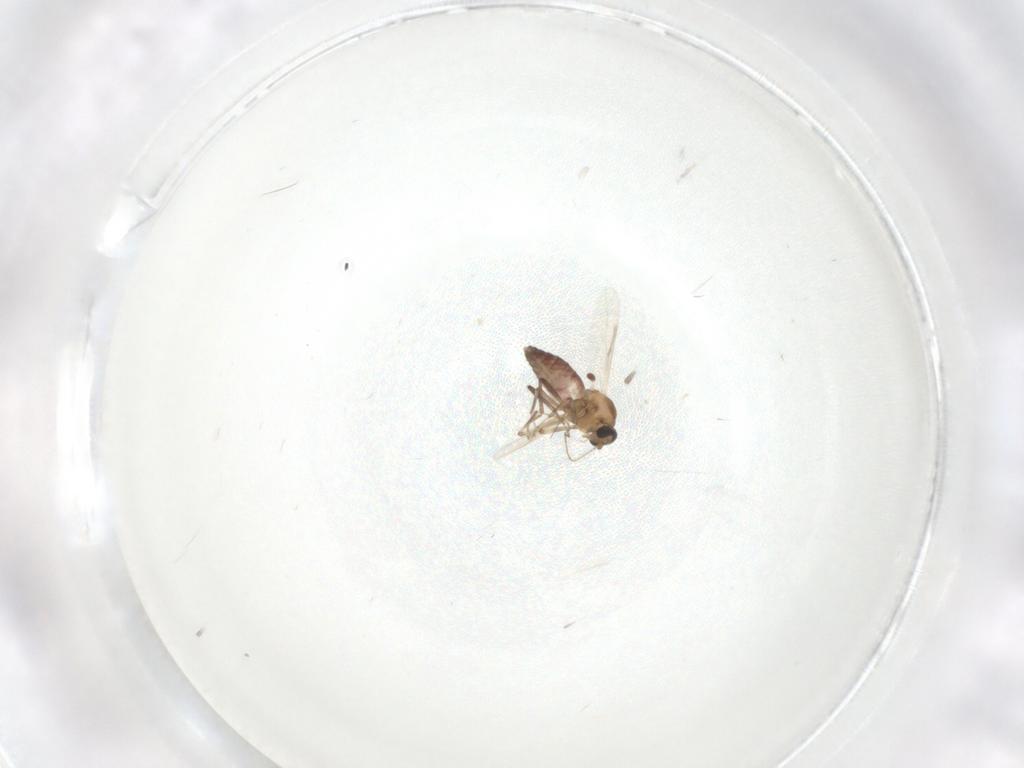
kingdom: Animalia
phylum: Arthropoda
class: Insecta
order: Diptera
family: Ceratopogonidae
